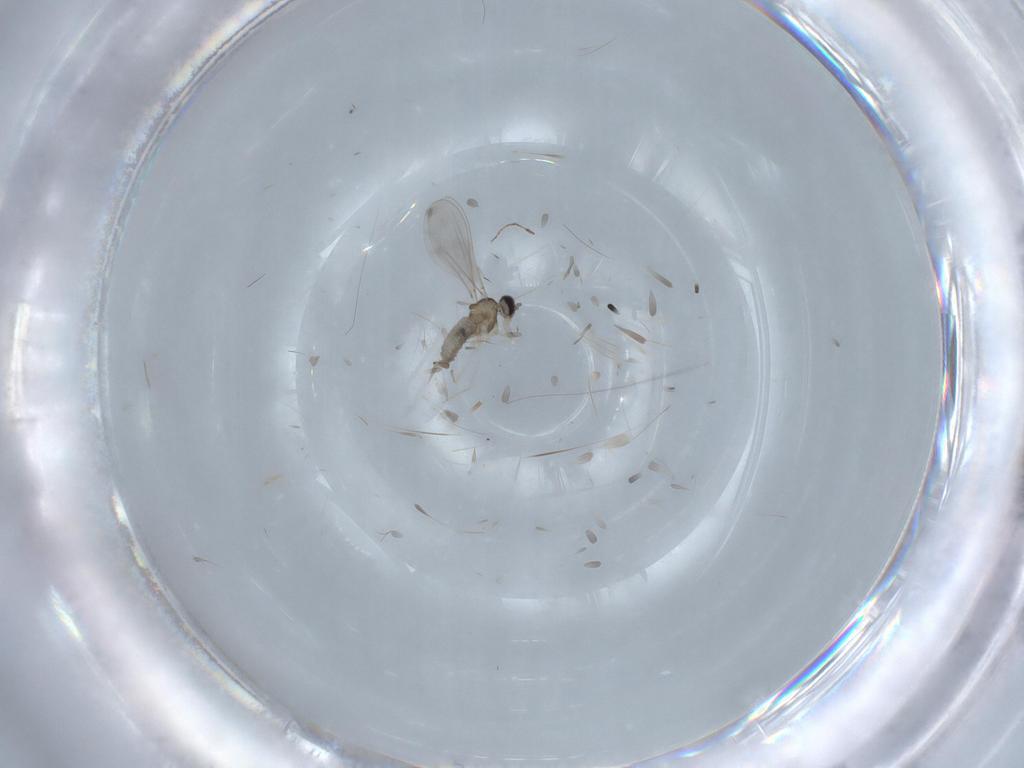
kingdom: Animalia
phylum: Arthropoda
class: Insecta
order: Diptera
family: Cecidomyiidae
